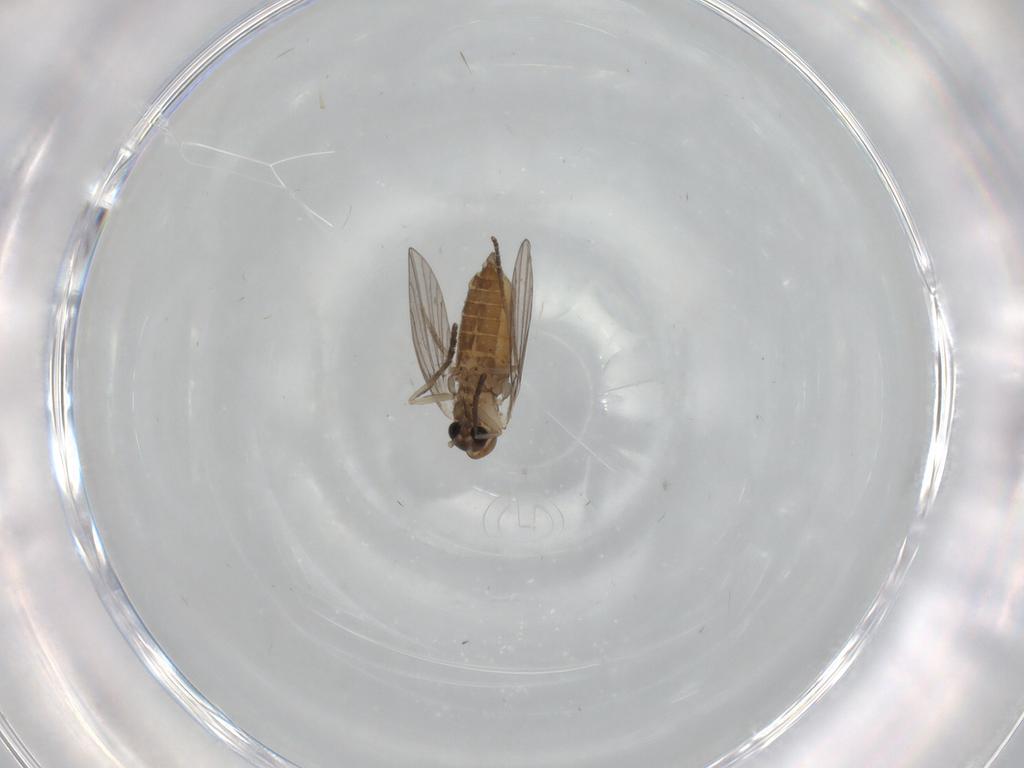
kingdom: Animalia
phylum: Arthropoda
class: Insecta
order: Diptera
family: Psychodidae
